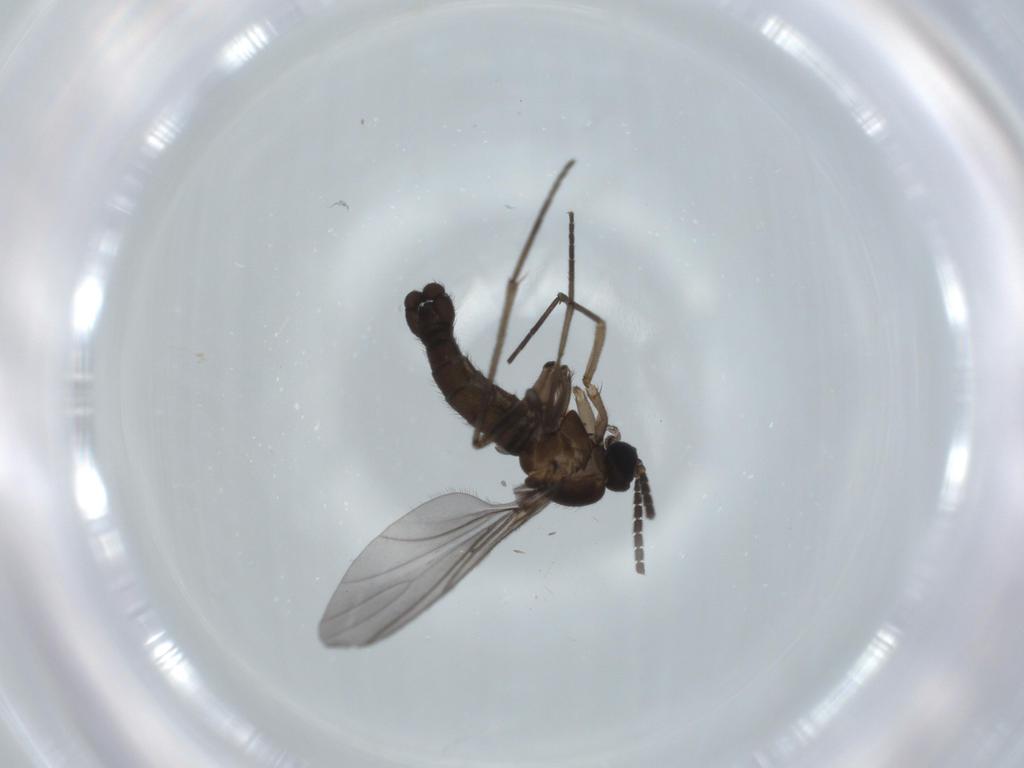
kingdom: Animalia
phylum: Arthropoda
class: Insecta
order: Diptera
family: Sciaridae
